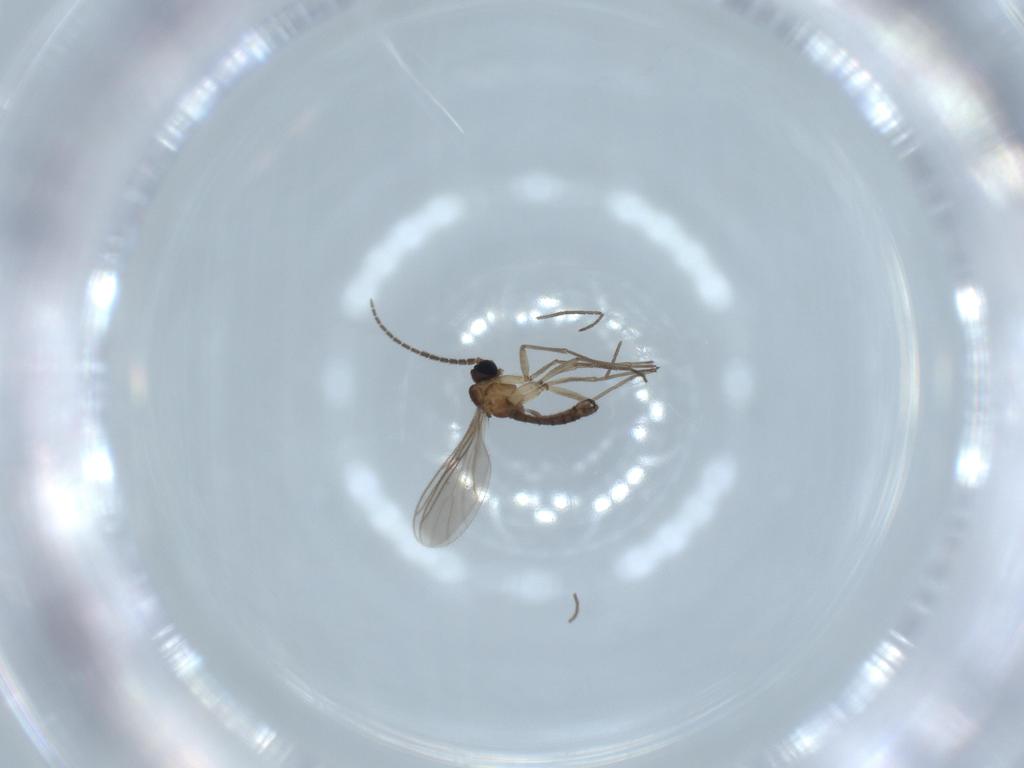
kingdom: Animalia
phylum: Arthropoda
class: Insecta
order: Diptera
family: Sciaridae
